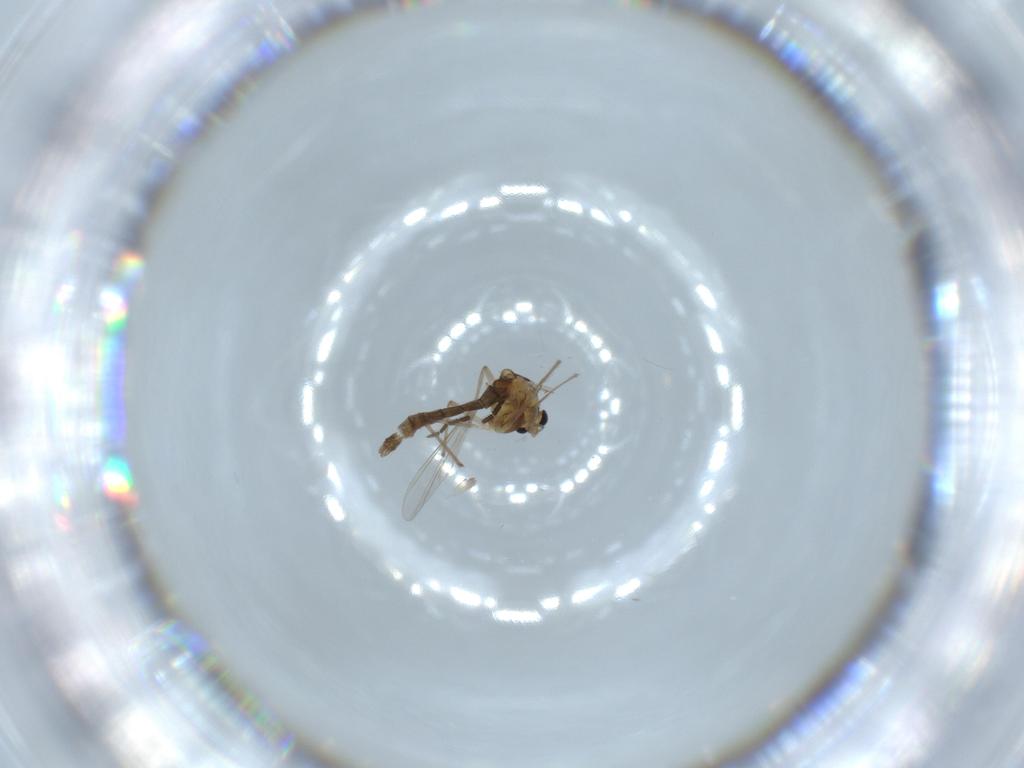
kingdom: Animalia
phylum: Arthropoda
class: Insecta
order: Diptera
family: Chironomidae
